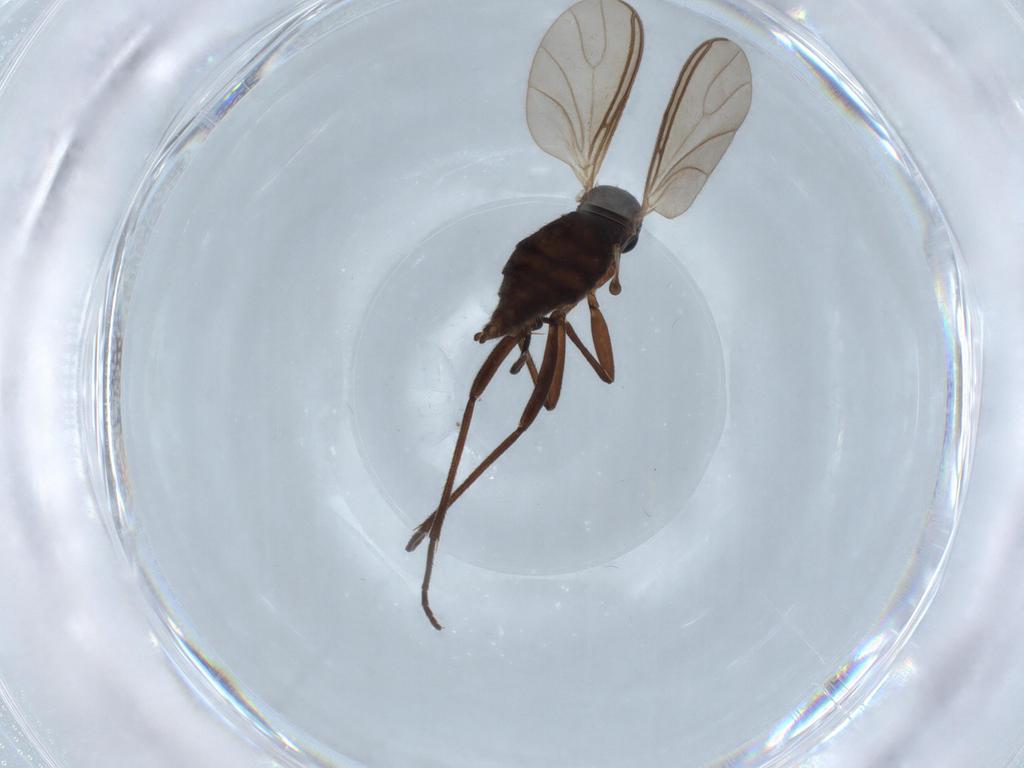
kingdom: Animalia
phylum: Arthropoda
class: Insecta
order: Diptera
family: Sciaridae
